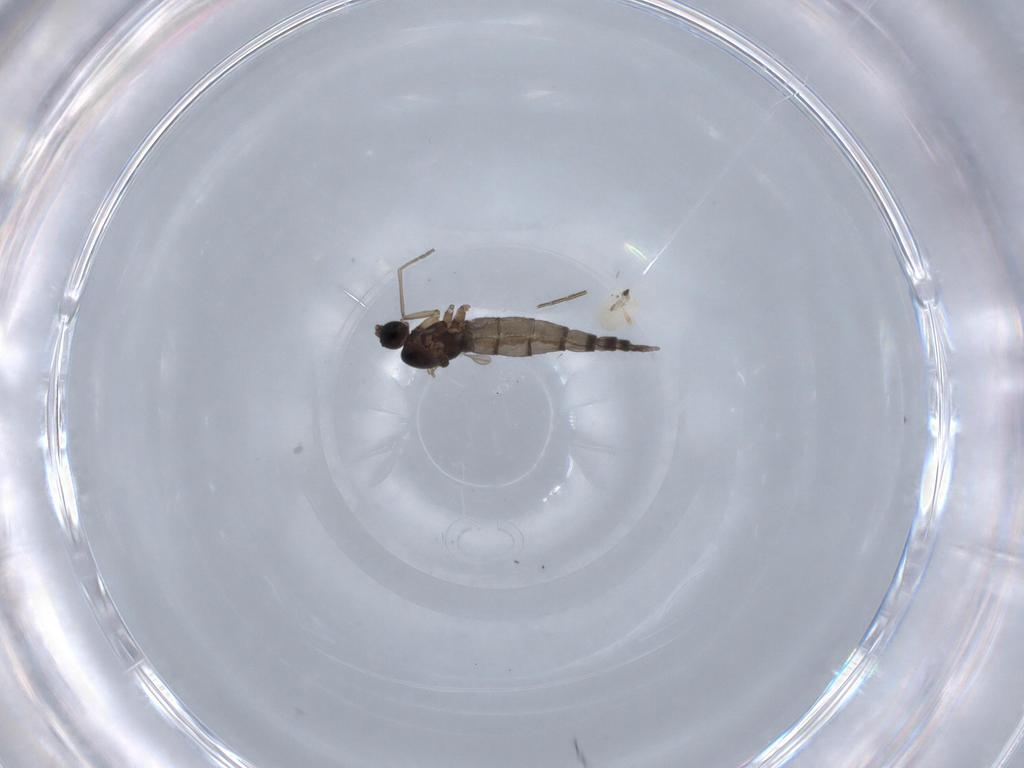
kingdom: Animalia
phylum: Arthropoda
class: Insecta
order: Diptera
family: Sciaridae
